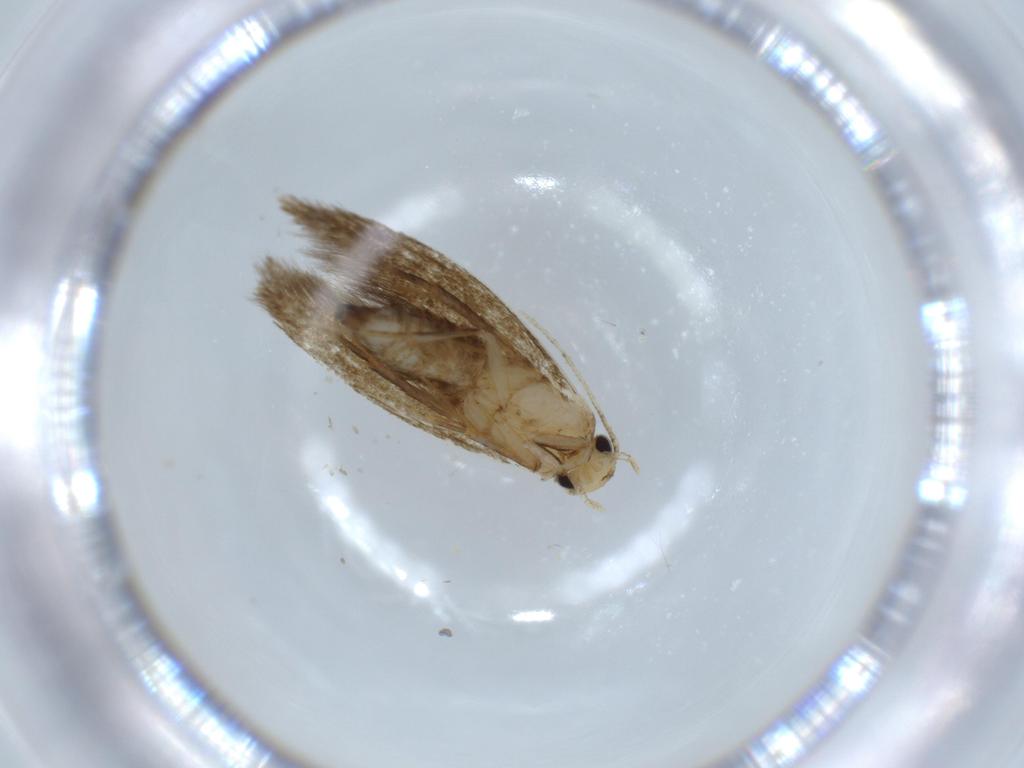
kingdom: Animalia
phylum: Arthropoda
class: Insecta
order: Lepidoptera
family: Tineidae
